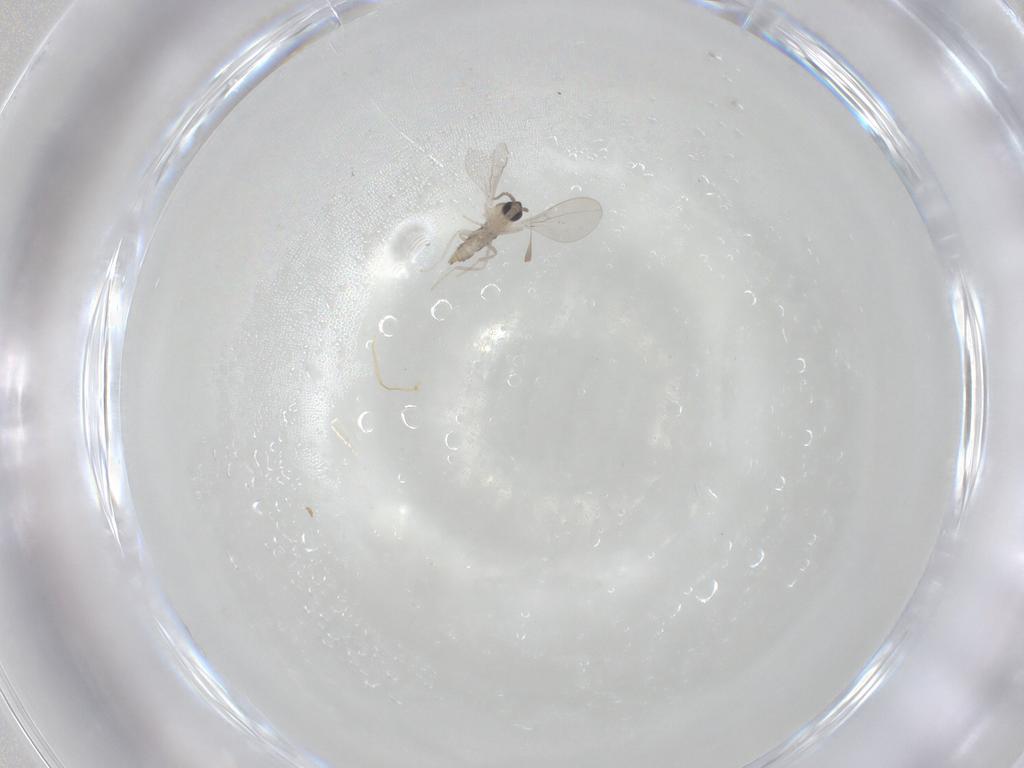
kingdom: Animalia
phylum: Arthropoda
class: Insecta
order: Diptera
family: Cecidomyiidae
